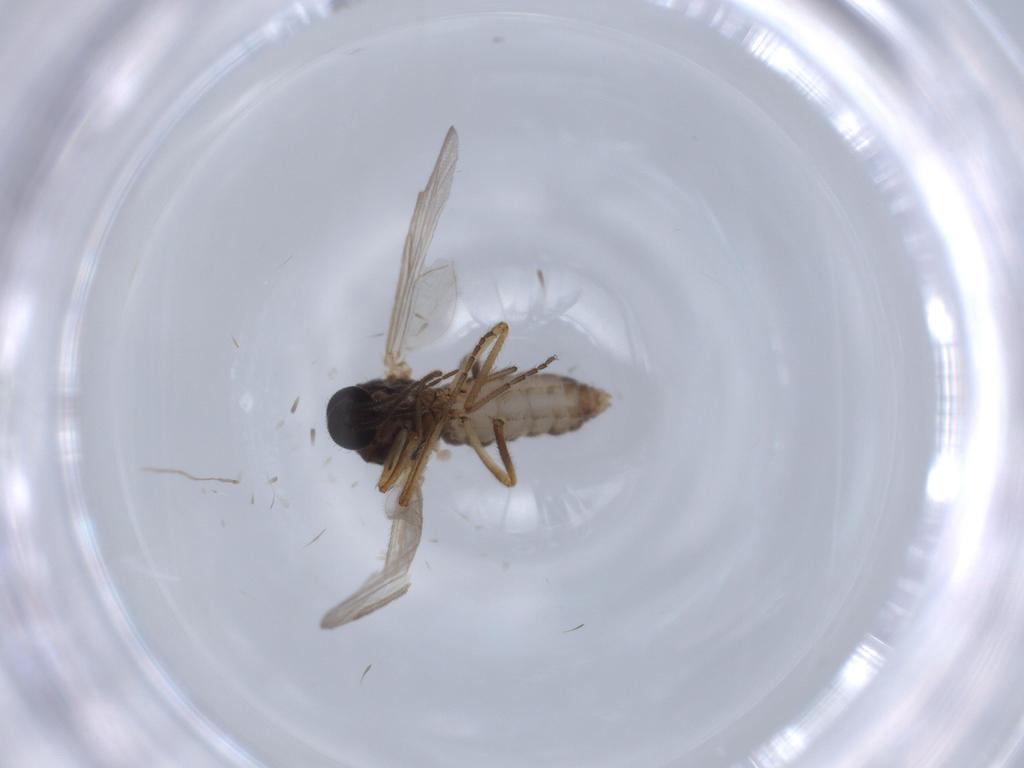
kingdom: Animalia
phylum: Arthropoda
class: Insecta
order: Diptera
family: Ceratopogonidae
